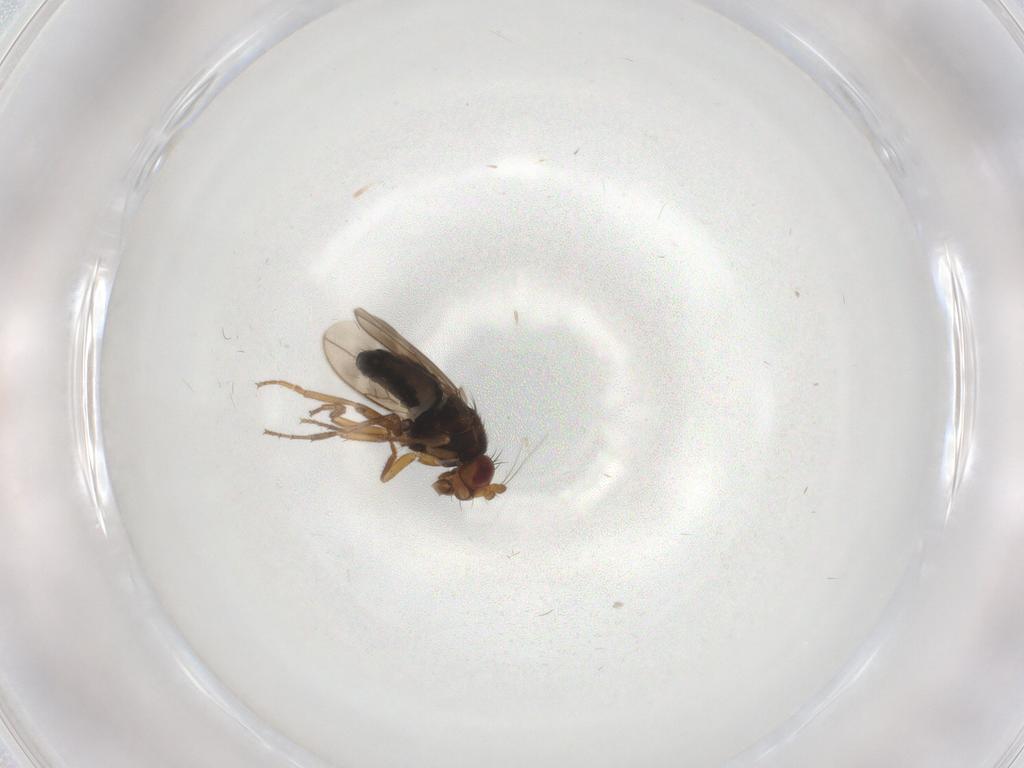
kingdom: Animalia
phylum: Arthropoda
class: Insecta
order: Diptera
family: Sphaeroceridae
